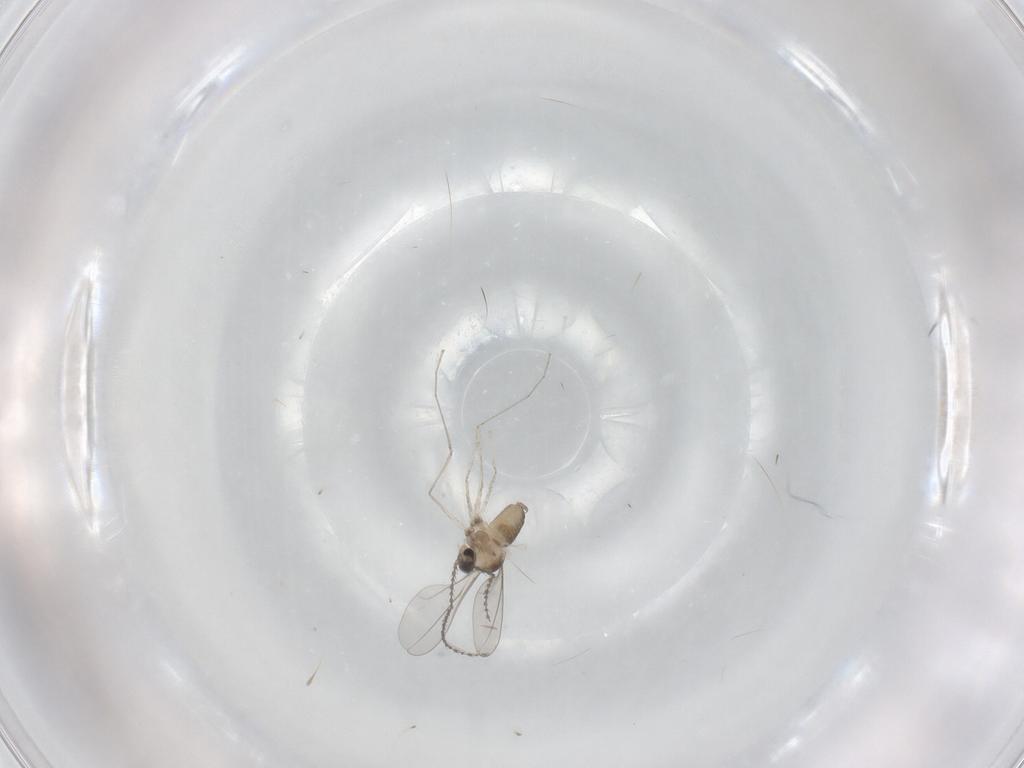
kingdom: Animalia
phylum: Arthropoda
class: Insecta
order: Diptera
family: Cecidomyiidae
